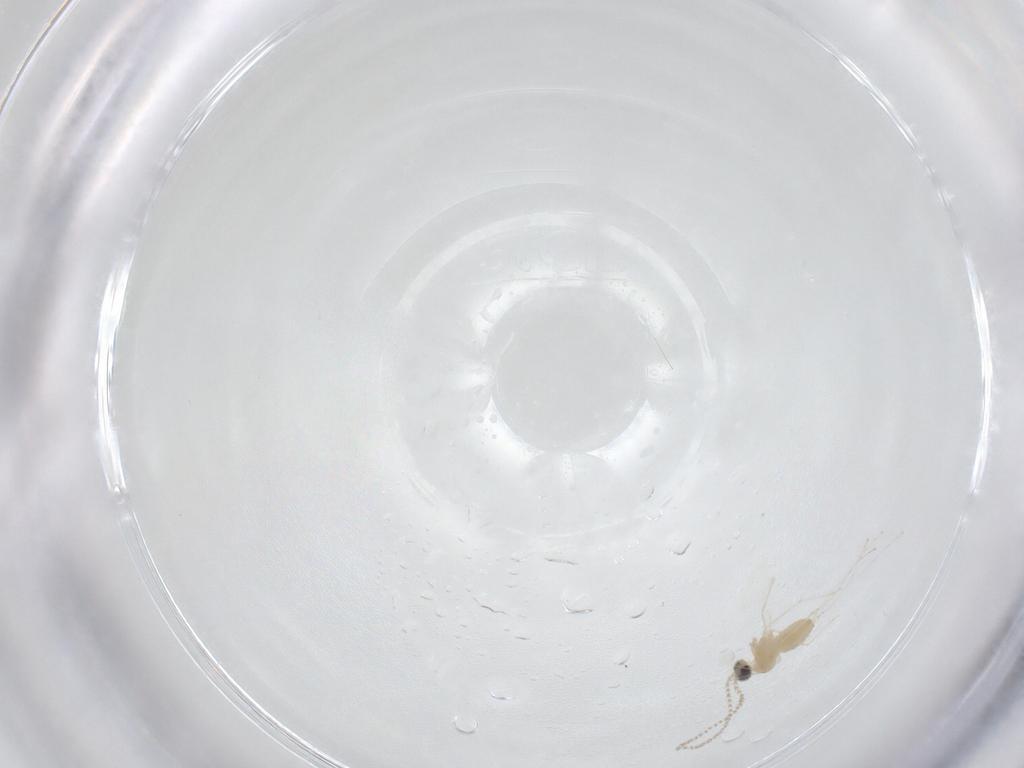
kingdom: Animalia
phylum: Arthropoda
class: Insecta
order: Diptera
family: Cecidomyiidae
